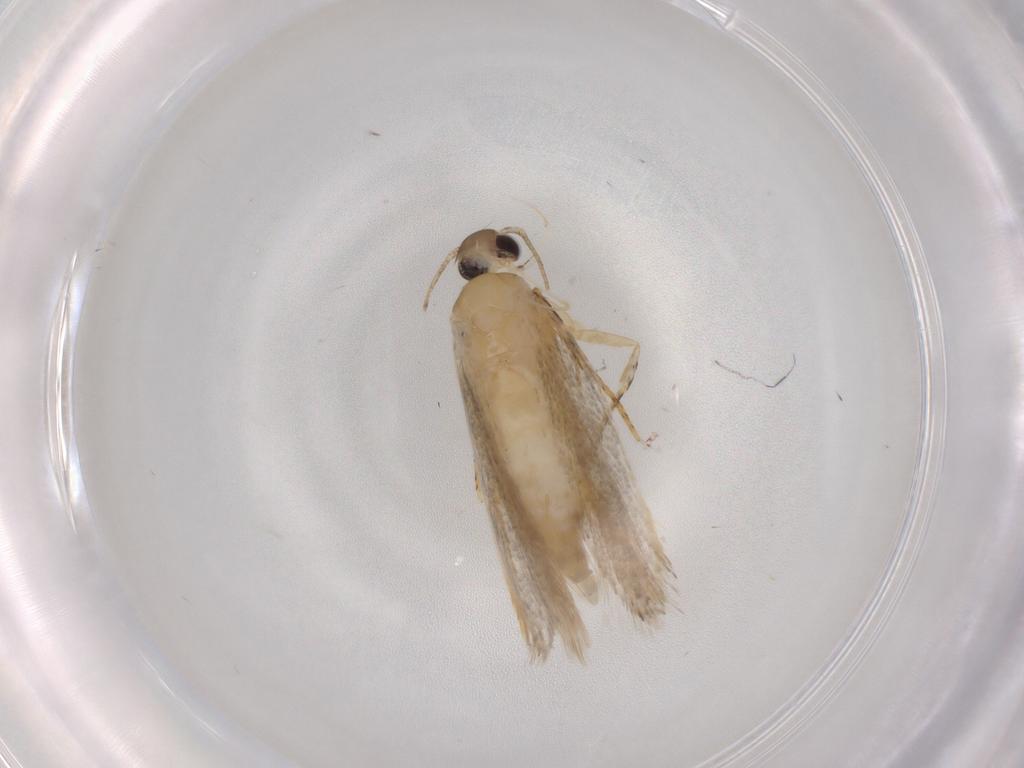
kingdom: Animalia
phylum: Arthropoda
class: Insecta
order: Lepidoptera
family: Autostichidae
